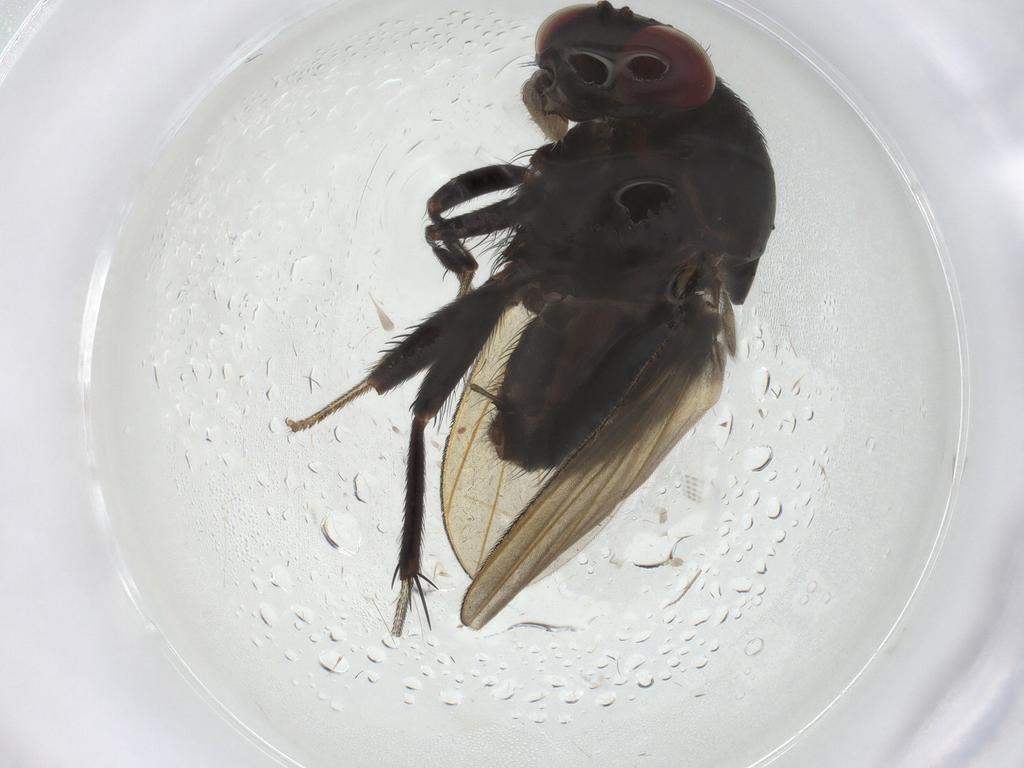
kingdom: Animalia
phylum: Arthropoda
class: Insecta
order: Diptera
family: Psychodidae
